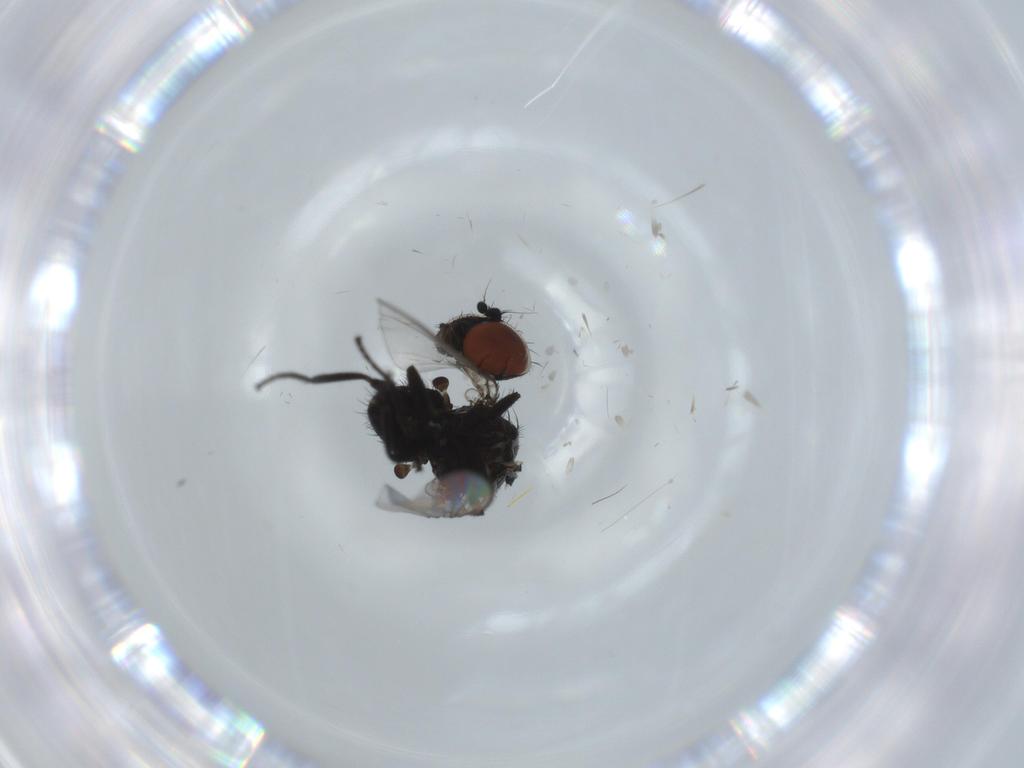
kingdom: Animalia
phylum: Arthropoda
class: Insecta
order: Diptera
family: Milichiidae
